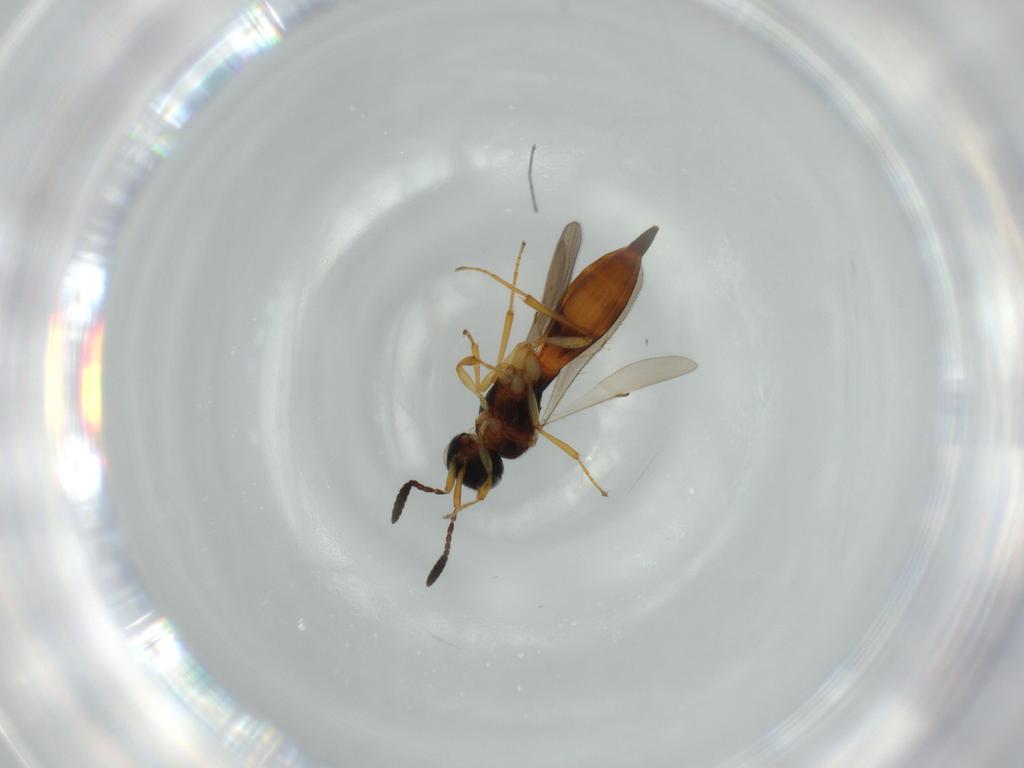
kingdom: Animalia
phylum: Arthropoda
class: Insecta
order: Hymenoptera
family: Scelionidae
